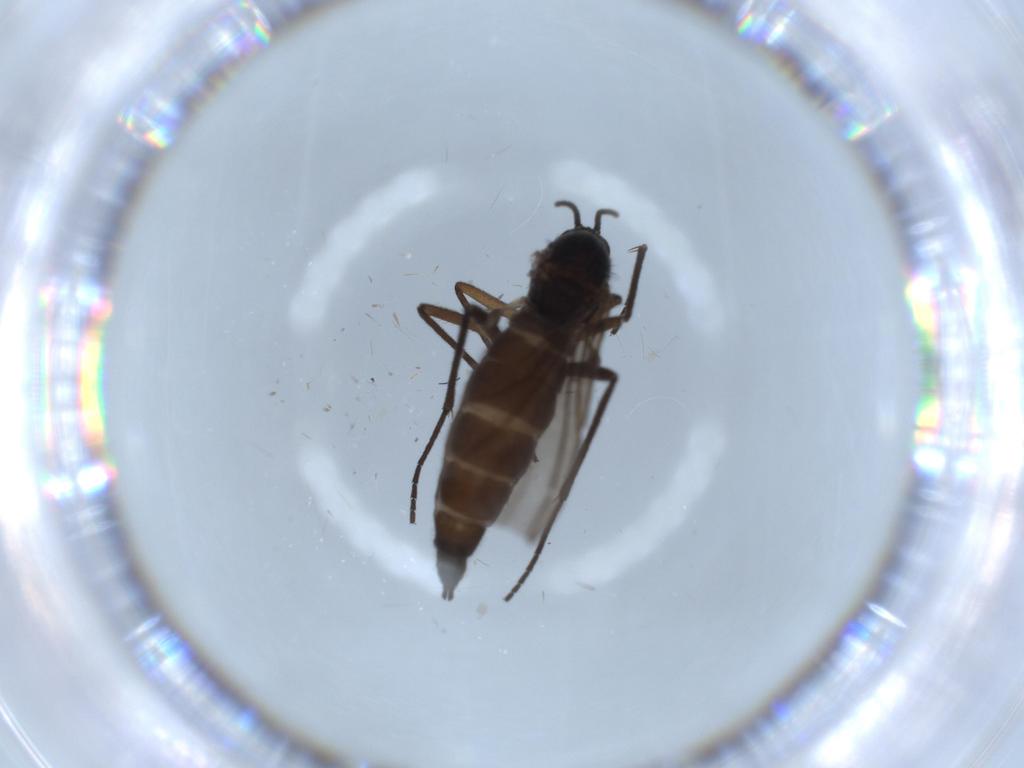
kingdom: Animalia
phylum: Arthropoda
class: Insecta
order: Diptera
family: Sciaridae
